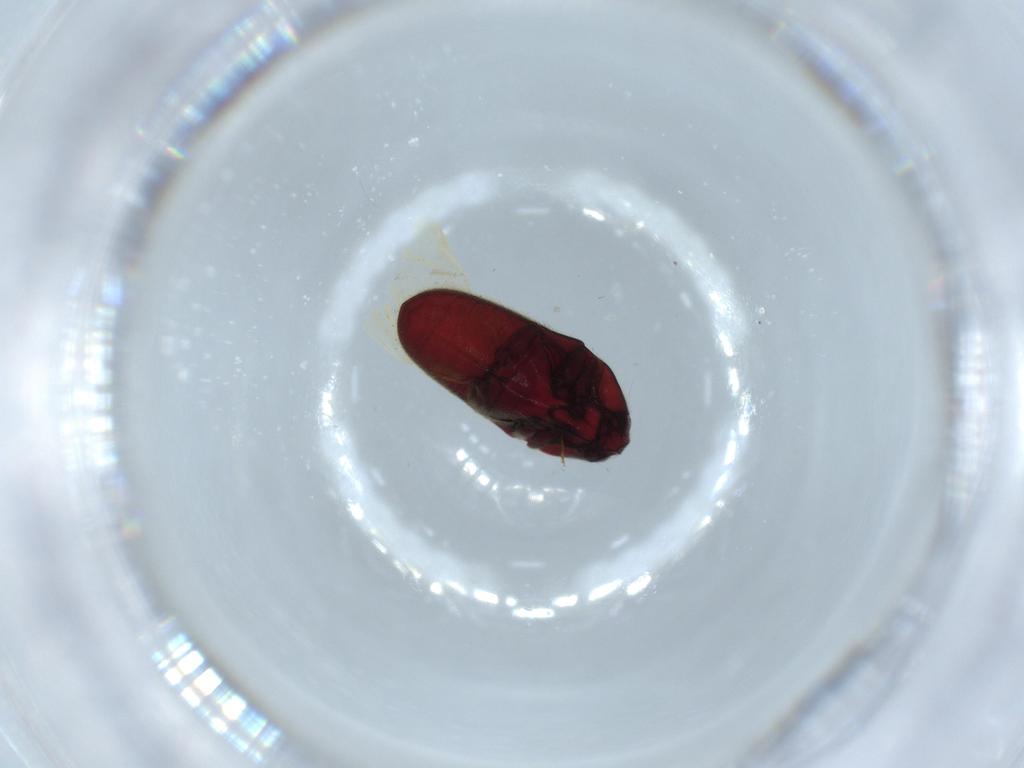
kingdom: Animalia
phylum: Arthropoda
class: Insecta
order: Coleoptera
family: Throscidae
